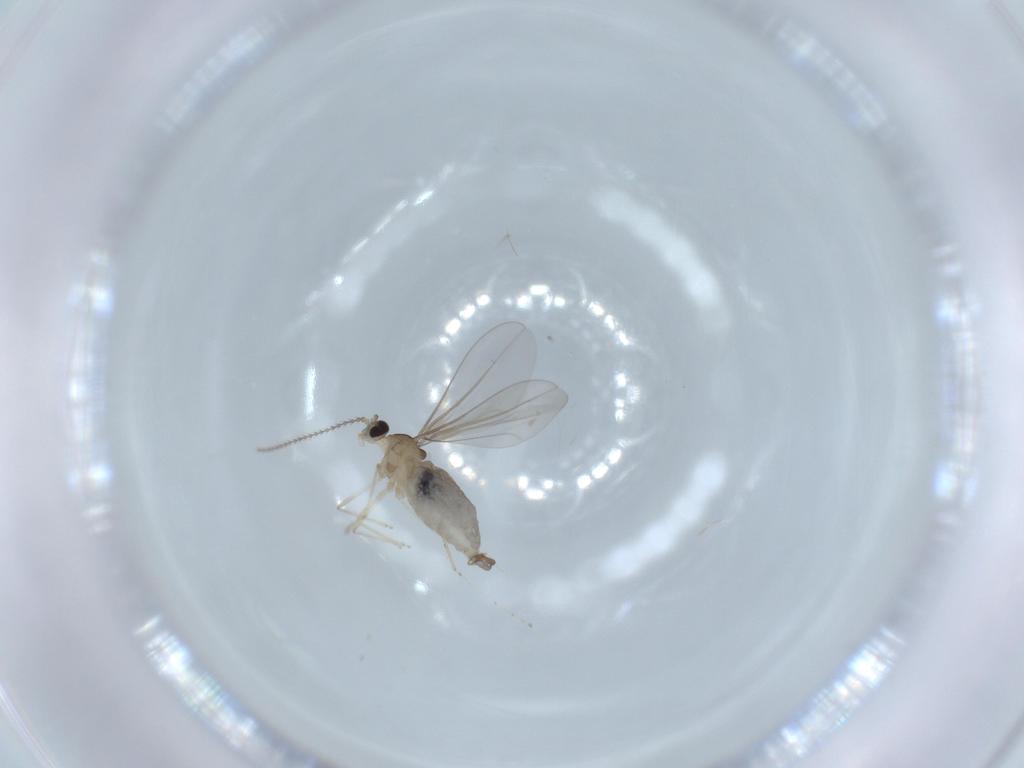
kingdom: Animalia
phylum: Arthropoda
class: Insecta
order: Diptera
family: Cecidomyiidae
